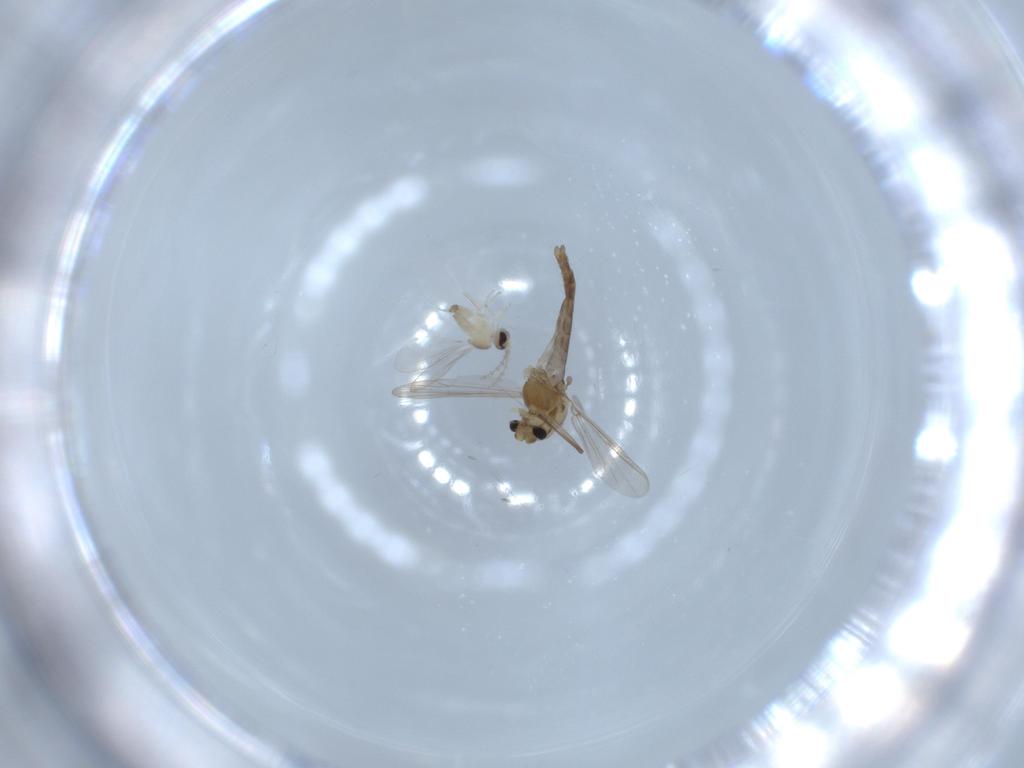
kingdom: Animalia
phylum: Arthropoda
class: Insecta
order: Diptera
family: Chironomidae
